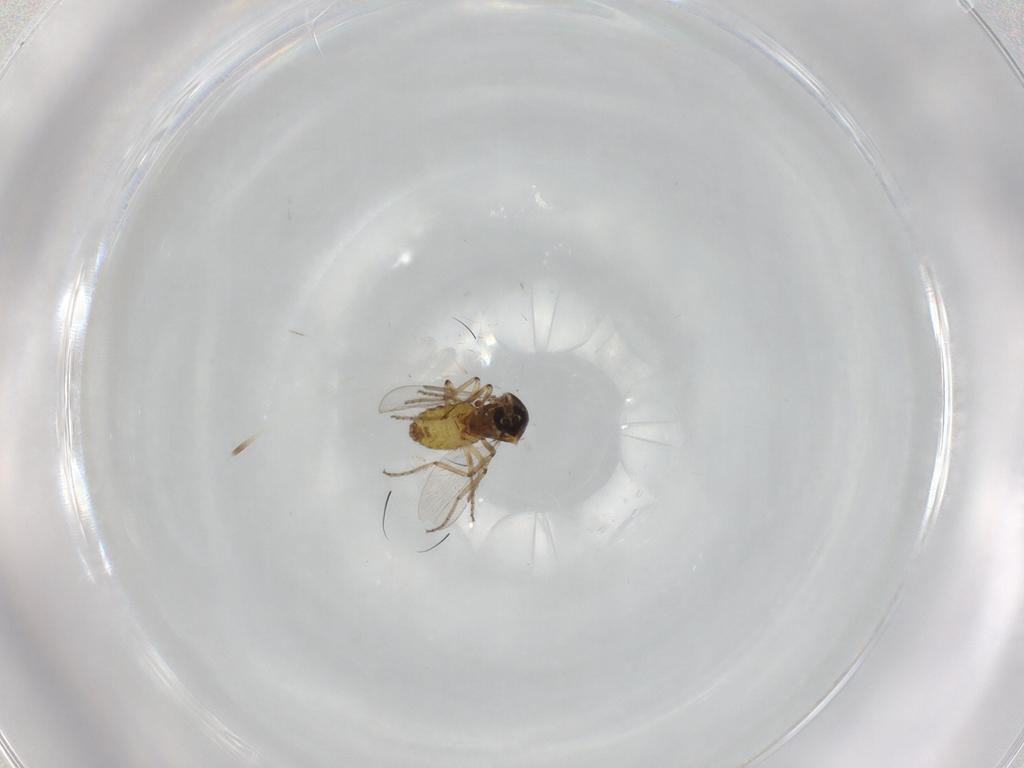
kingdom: Animalia
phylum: Arthropoda
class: Insecta
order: Diptera
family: Ceratopogonidae
